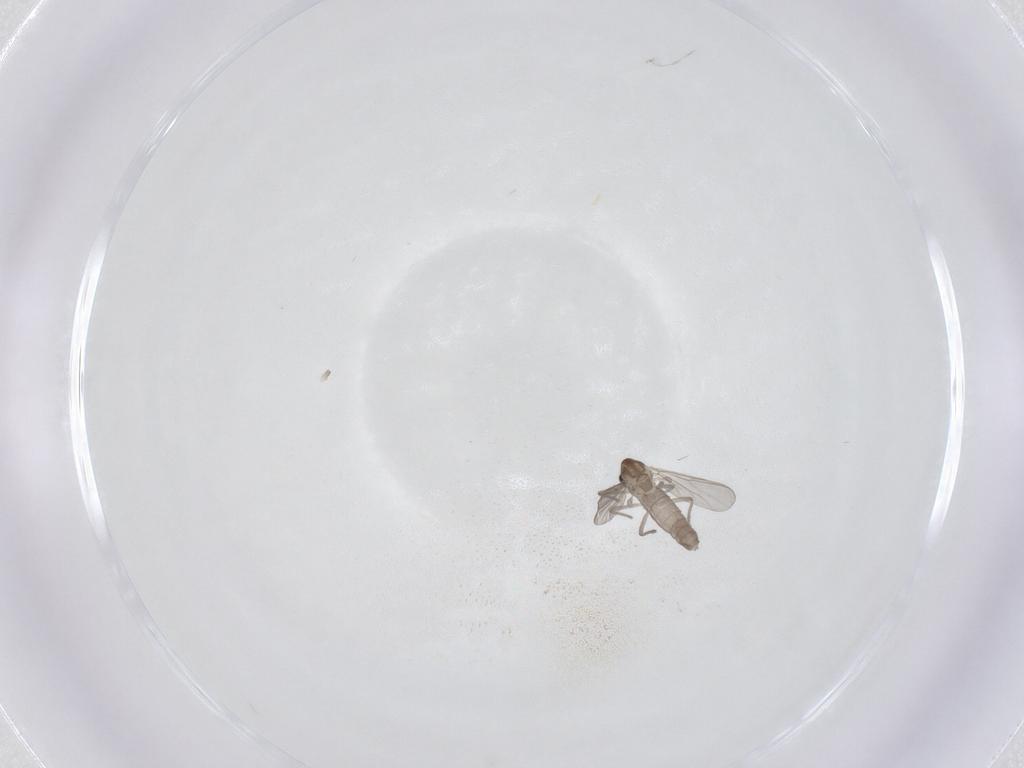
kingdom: Animalia
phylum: Arthropoda
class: Insecta
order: Diptera
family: Chironomidae
